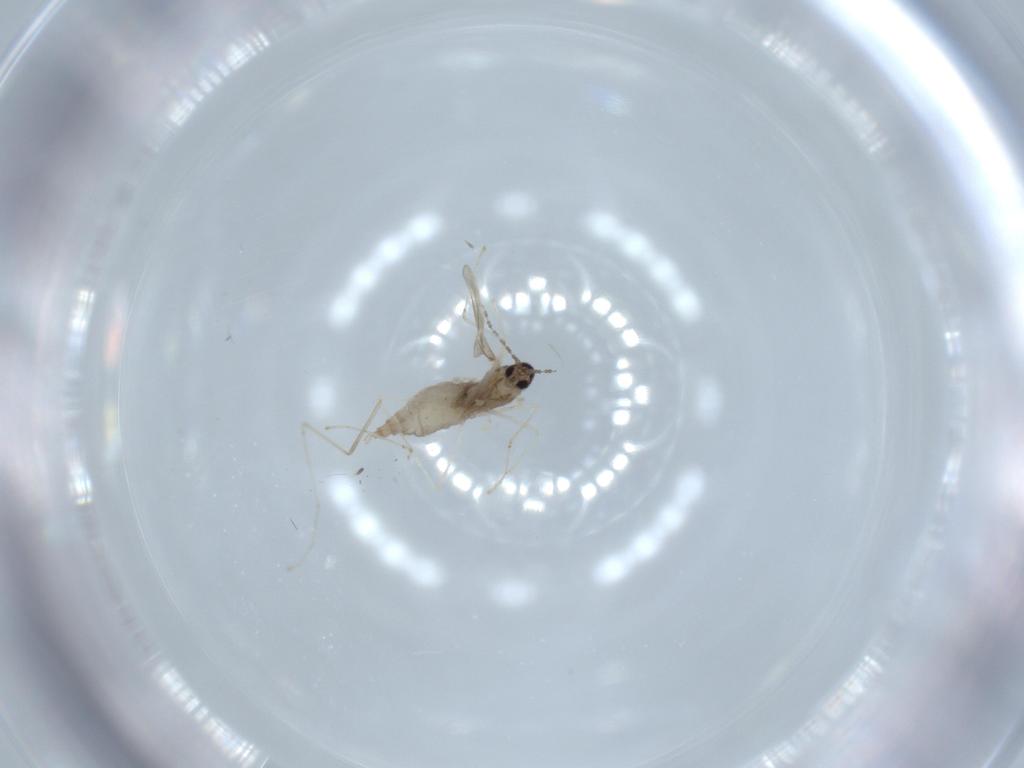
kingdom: Animalia
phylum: Arthropoda
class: Insecta
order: Diptera
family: Cecidomyiidae
